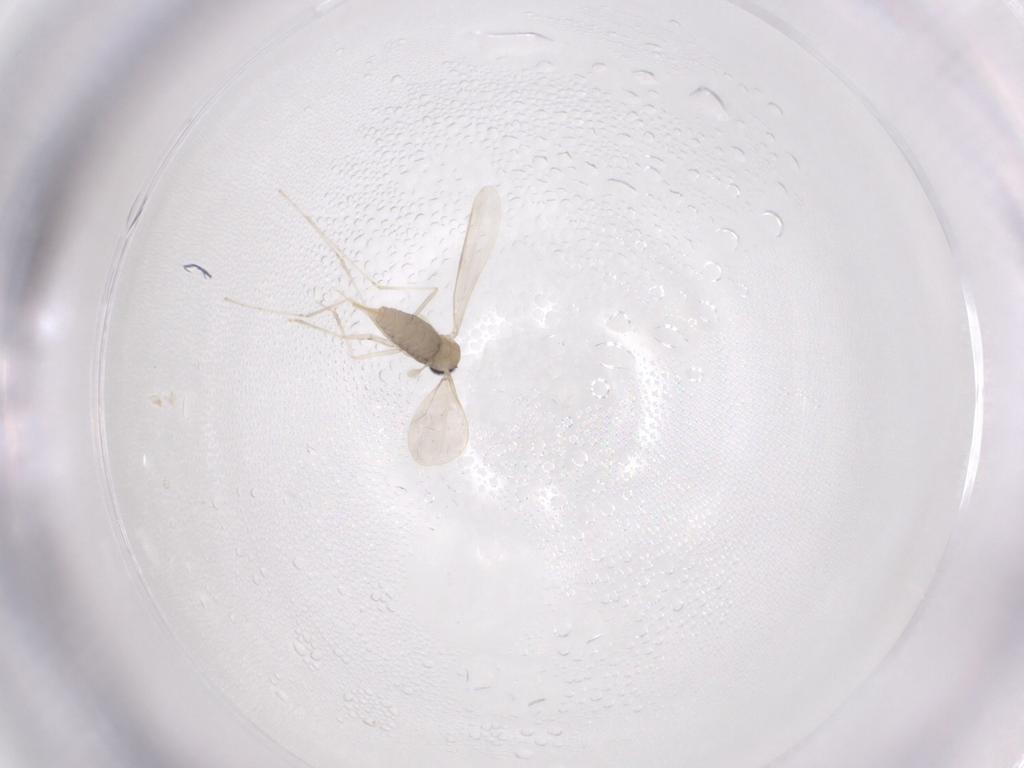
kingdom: Animalia
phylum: Arthropoda
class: Insecta
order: Diptera
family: Cecidomyiidae
